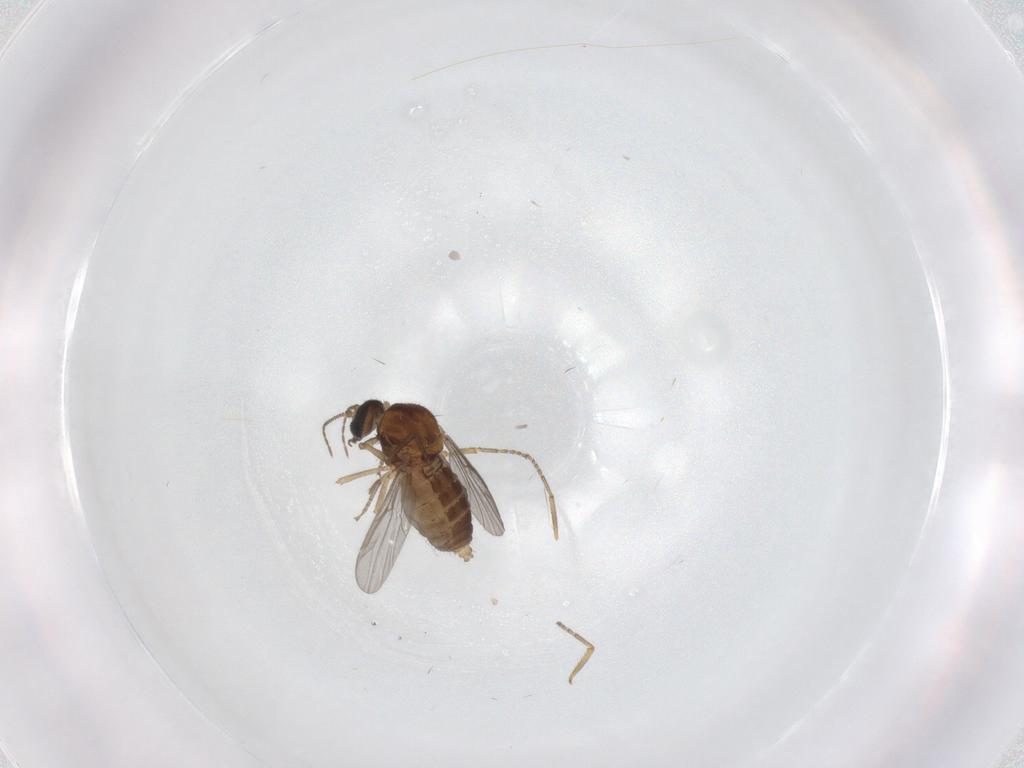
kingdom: Animalia
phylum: Arthropoda
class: Insecta
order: Diptera
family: Ceratopogonidae
